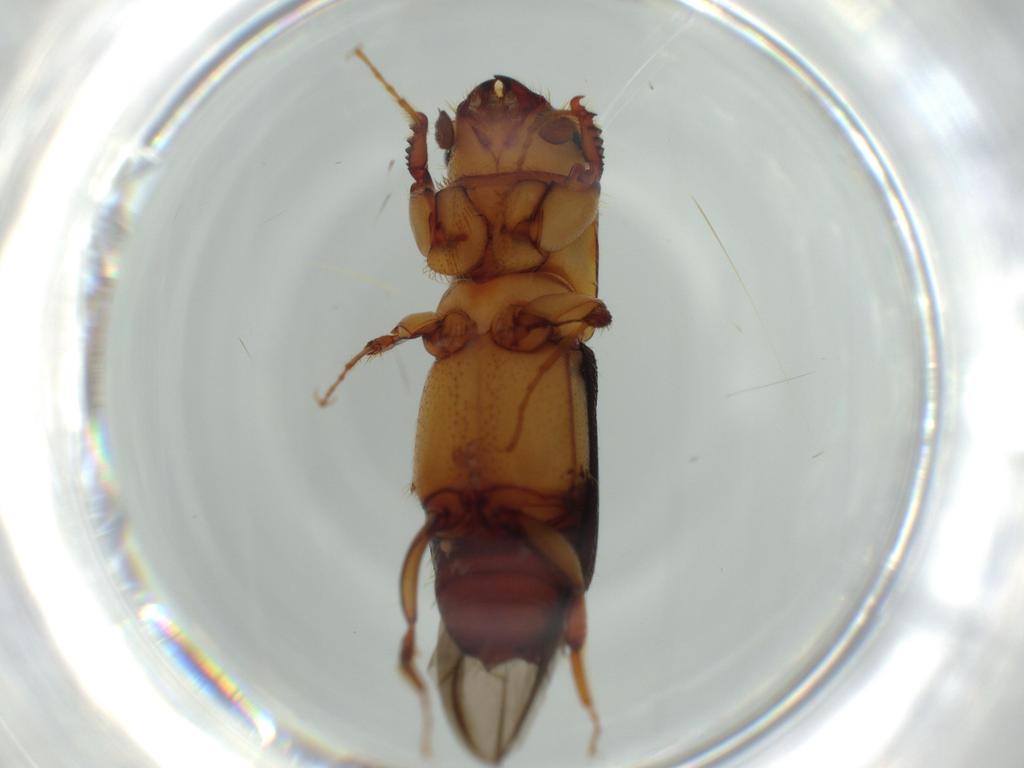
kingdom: Animalia
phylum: Arthropoda
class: Insecta
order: Coleoptera
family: Curculionidae
